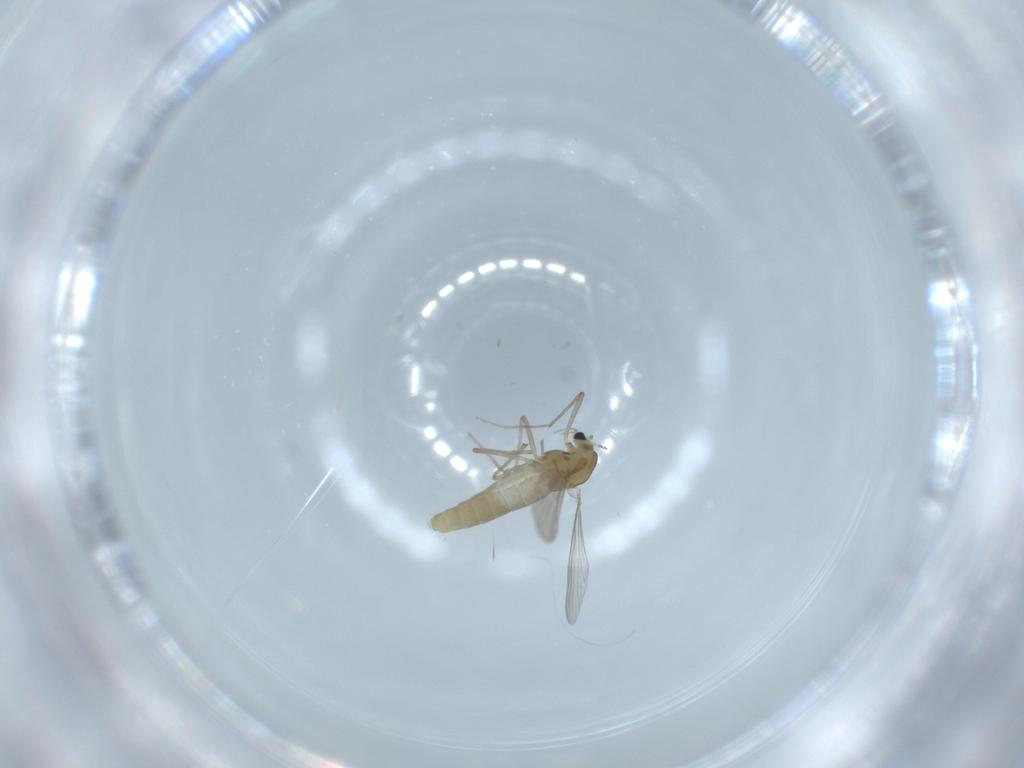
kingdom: Animalia
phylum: Arthropoda
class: Insecta
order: Diptera
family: Chironomidae
